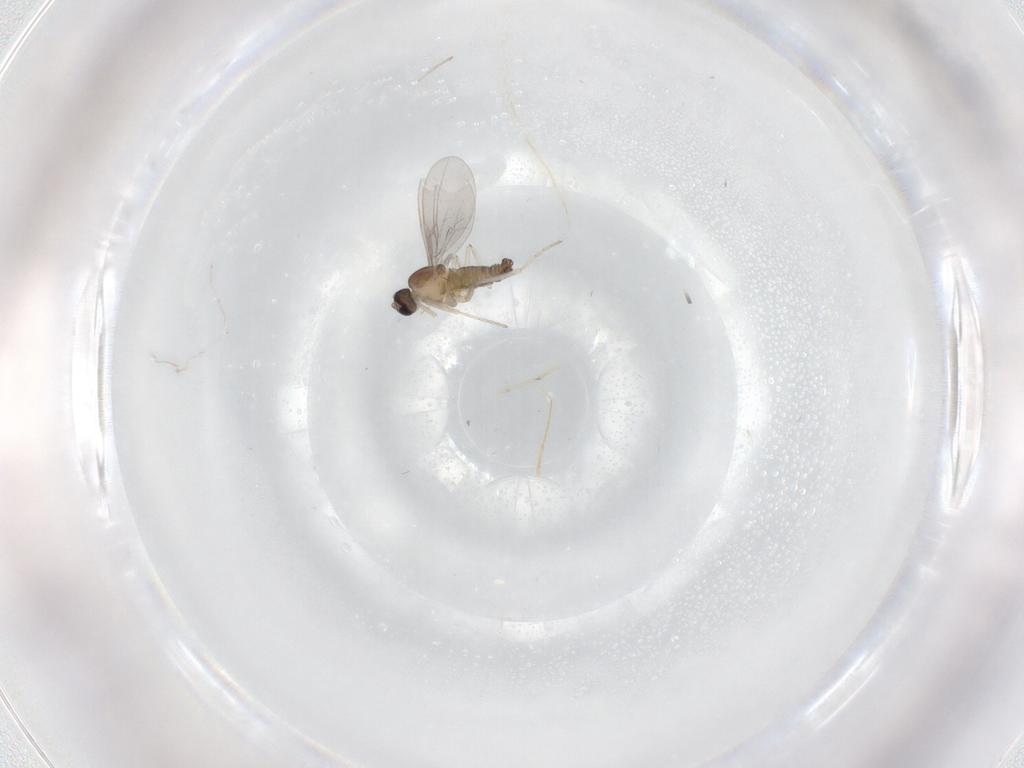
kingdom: Animalia
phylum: Arthropoda
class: Insecta
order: Diptera
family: Cecidomyiidae
